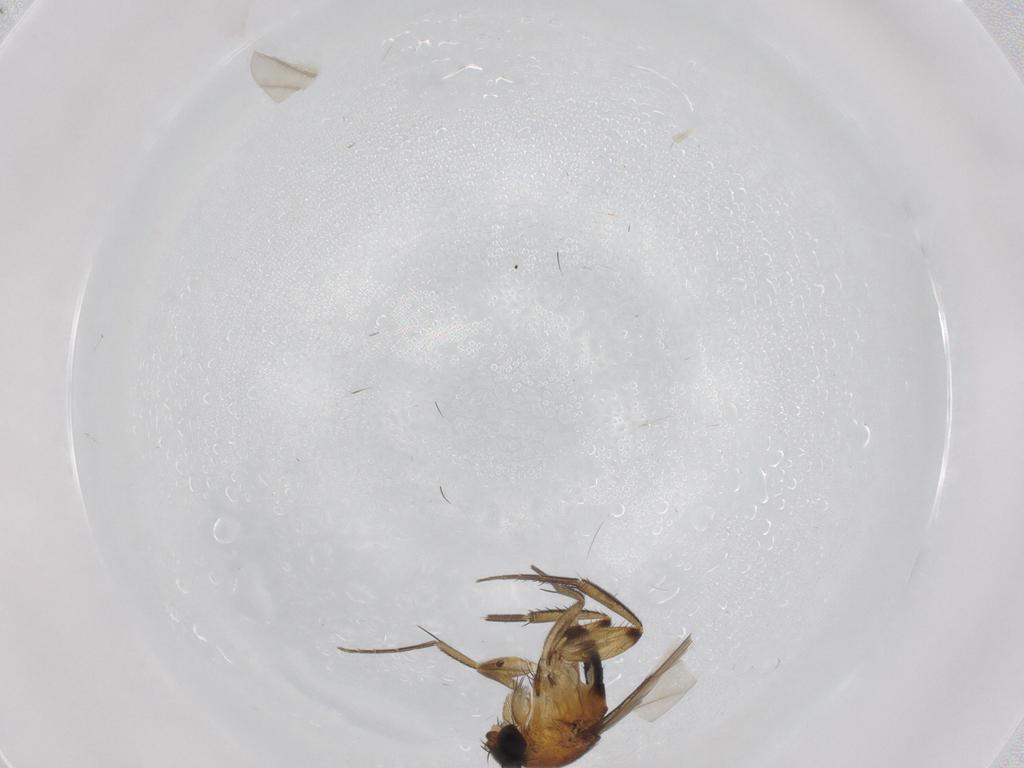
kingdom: Animalia
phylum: Arthropoda
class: Insecta
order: Diptera
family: Phoridae
